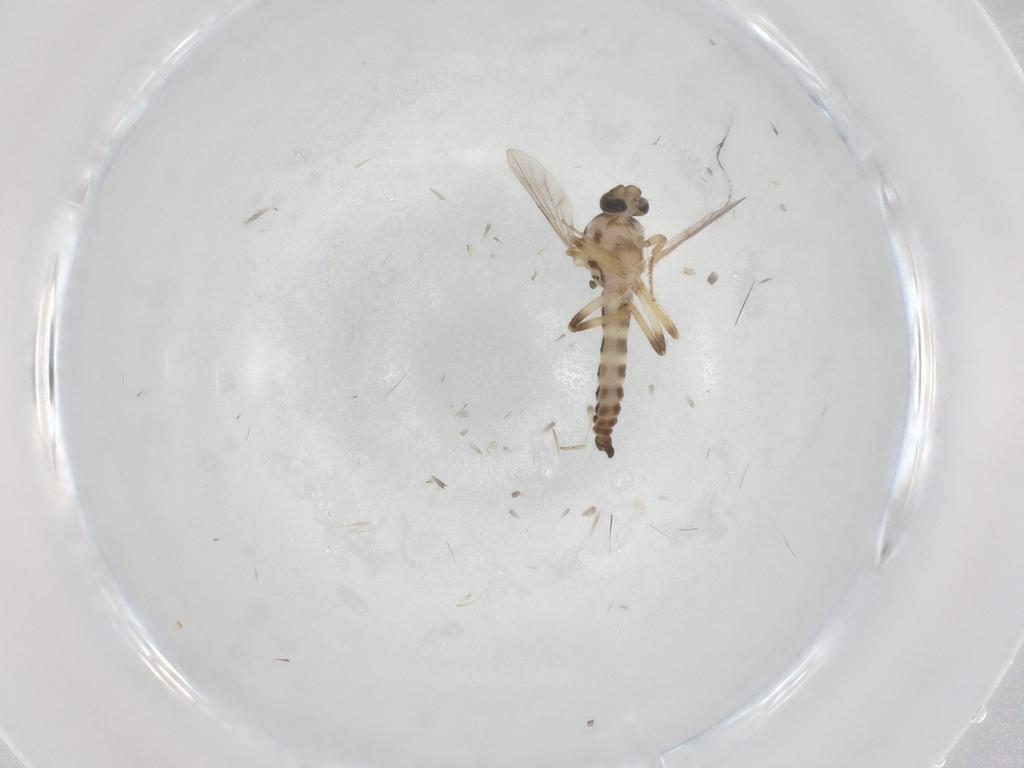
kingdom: Animalia
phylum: Arthropoda
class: Insecta
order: Diptera
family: Ceratopogonidae
